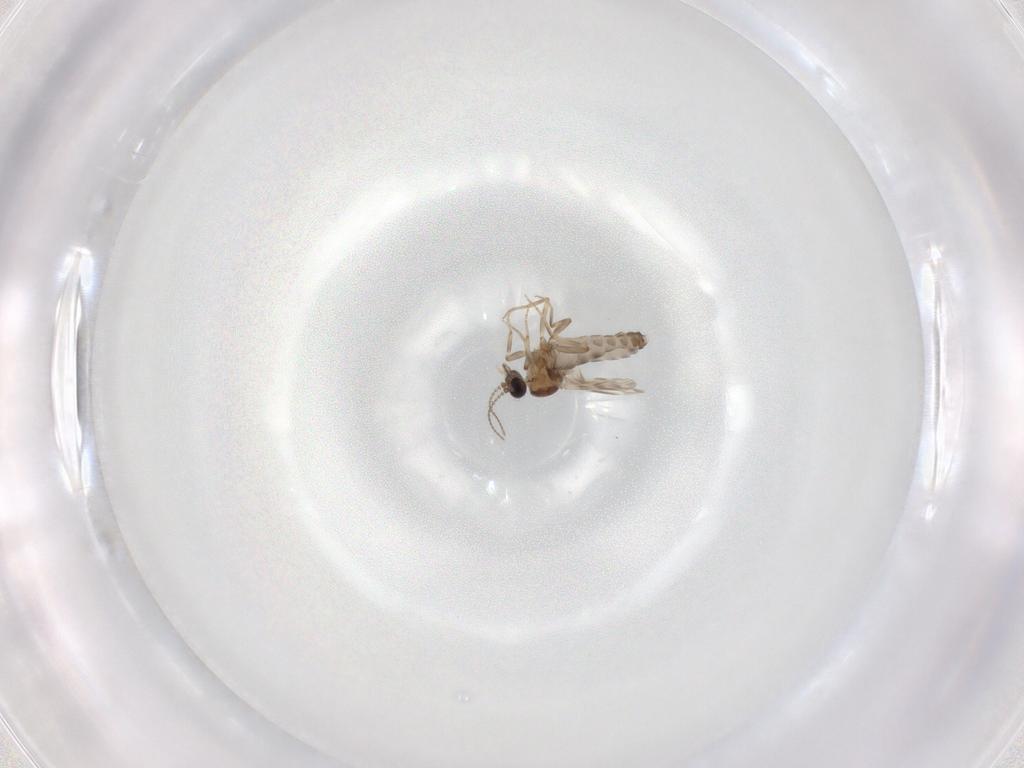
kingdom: Animalia
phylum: Arthropoda
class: Insecta
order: Diptera
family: Ceratopogonidae
